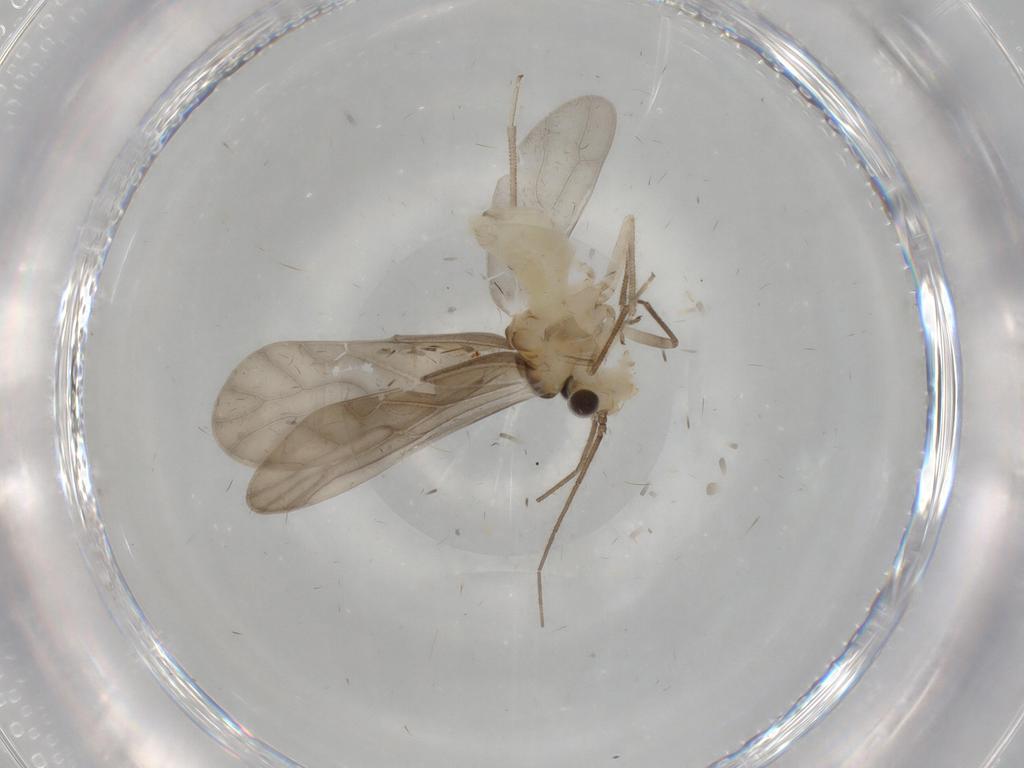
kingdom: Animalia
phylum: Arthropoda
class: Insecta
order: Psocodea
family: Caeciliusidae
